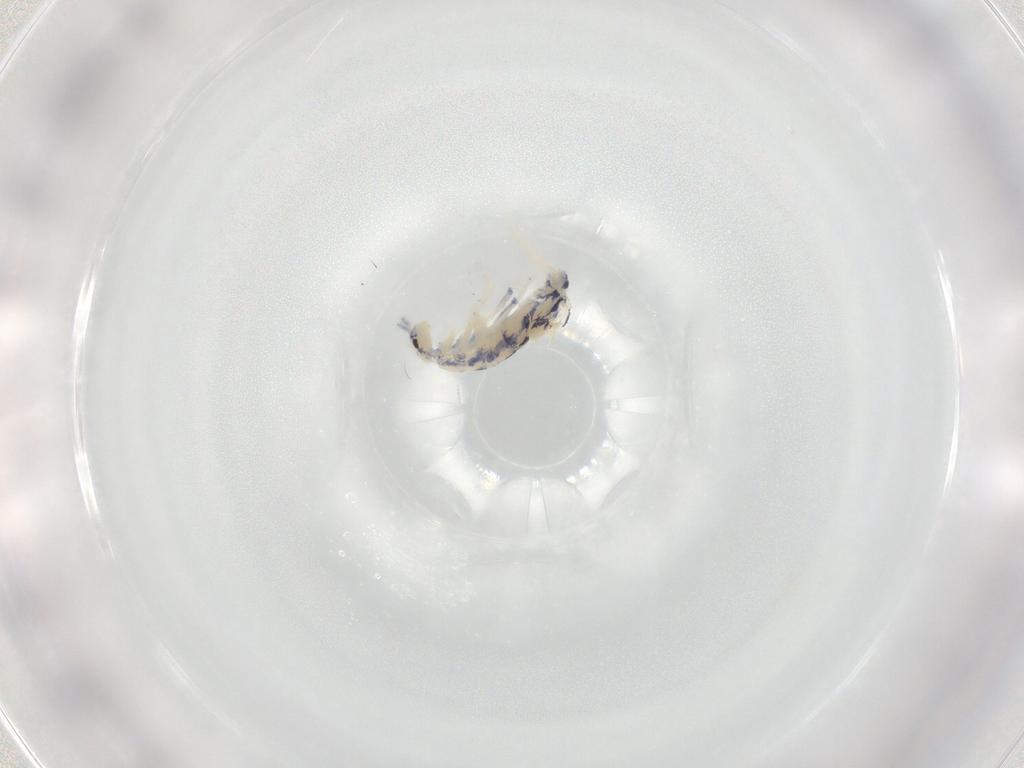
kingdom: Animalia
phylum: Arthropoda
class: Collembola
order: Entomobryomorpha
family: Entomobryidae
